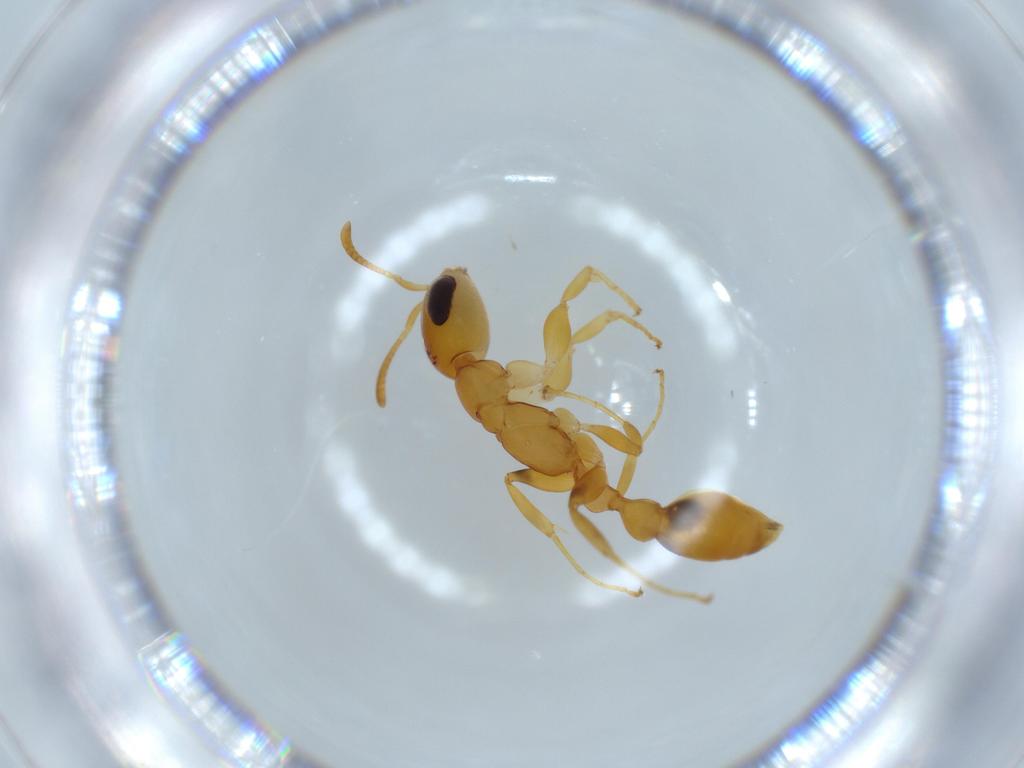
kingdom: Animalia
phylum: Arthropoda
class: Insecta
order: Hymenoptera
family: Formicidae
